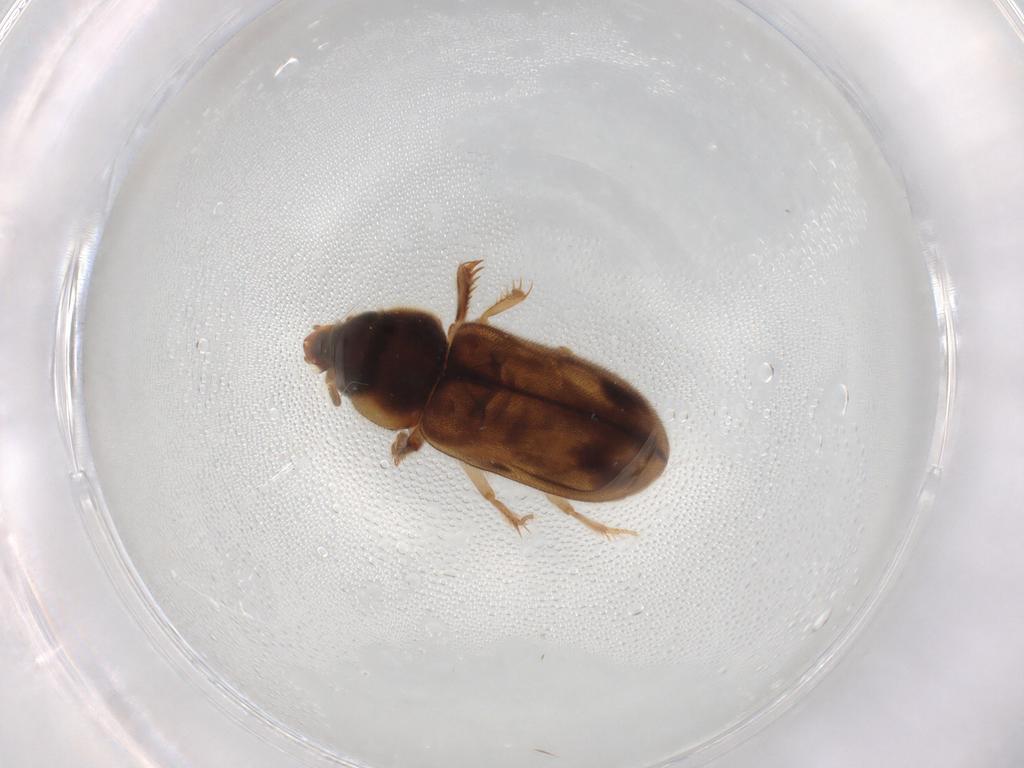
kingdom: Animalia
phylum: Arthropoda
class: Insecta
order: Coleoptera
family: Heteroceridae
